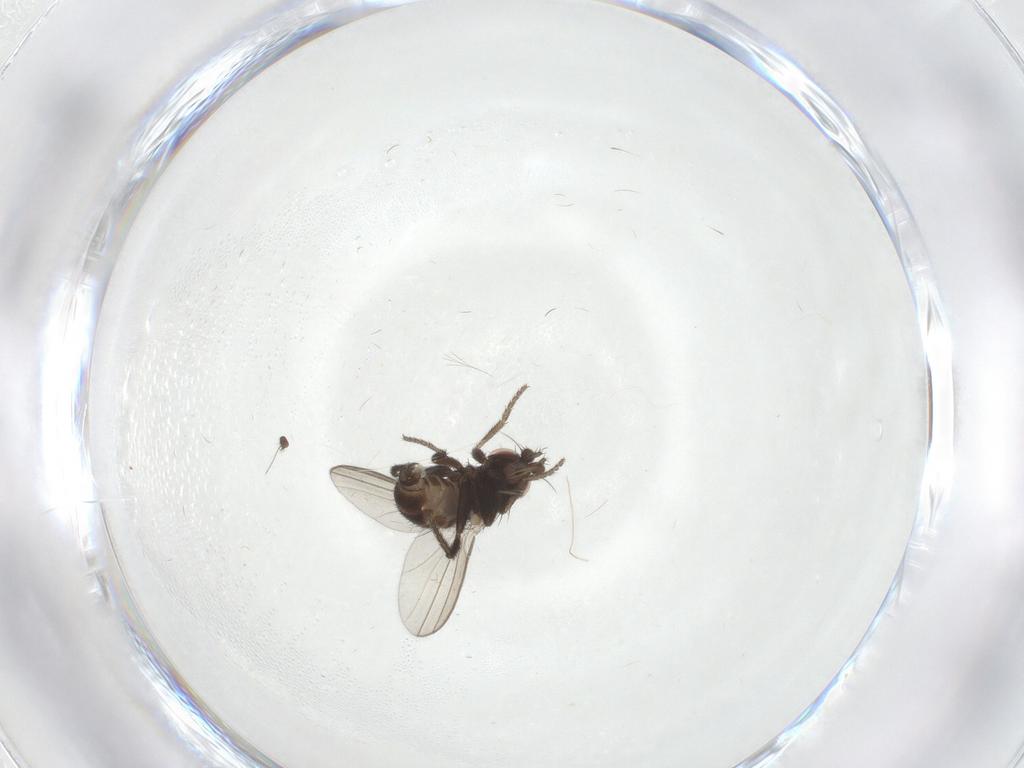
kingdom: Animalia
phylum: Arthropoda
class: Insecta
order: Diptera
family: Milichiidae
